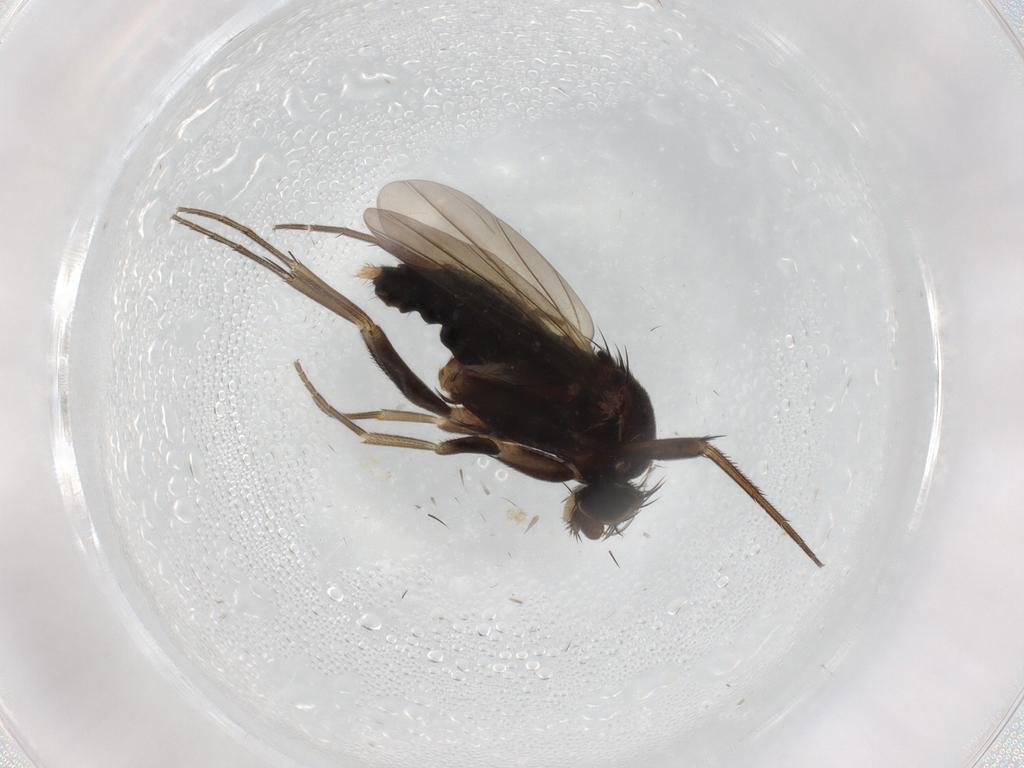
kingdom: Animalia
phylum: Arthropoda
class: Insecta
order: Diptera
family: Phoridae
